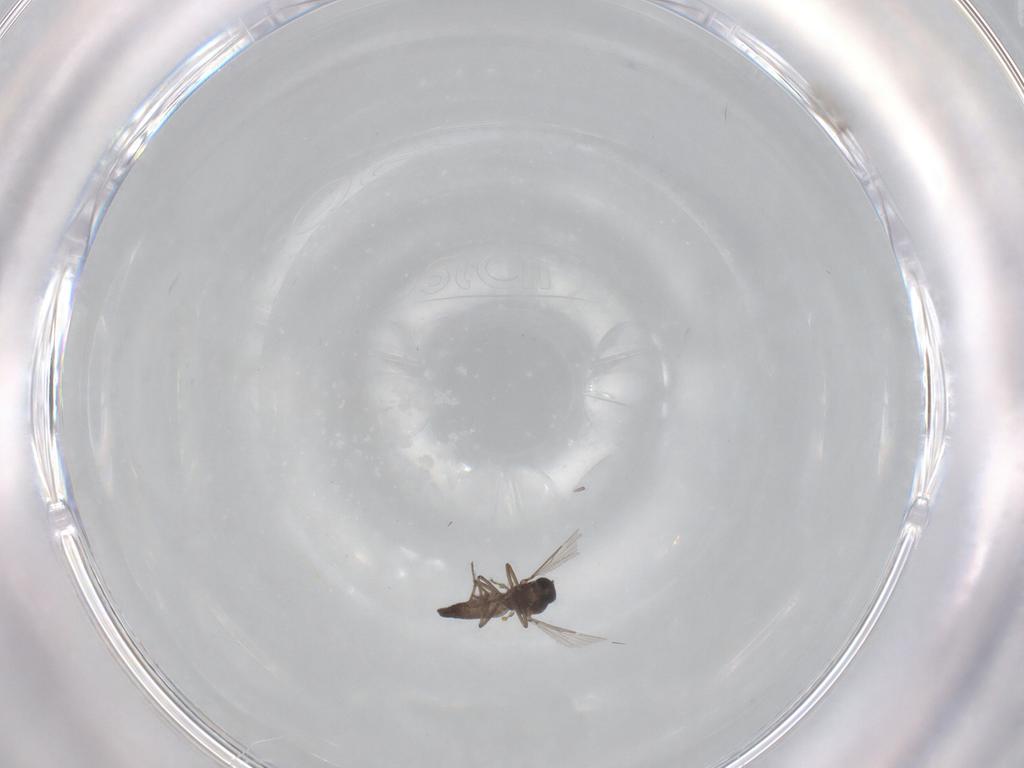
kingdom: Animalia
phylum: Arthropoda
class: Insecta
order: Diptera
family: Ceratopogonidae
